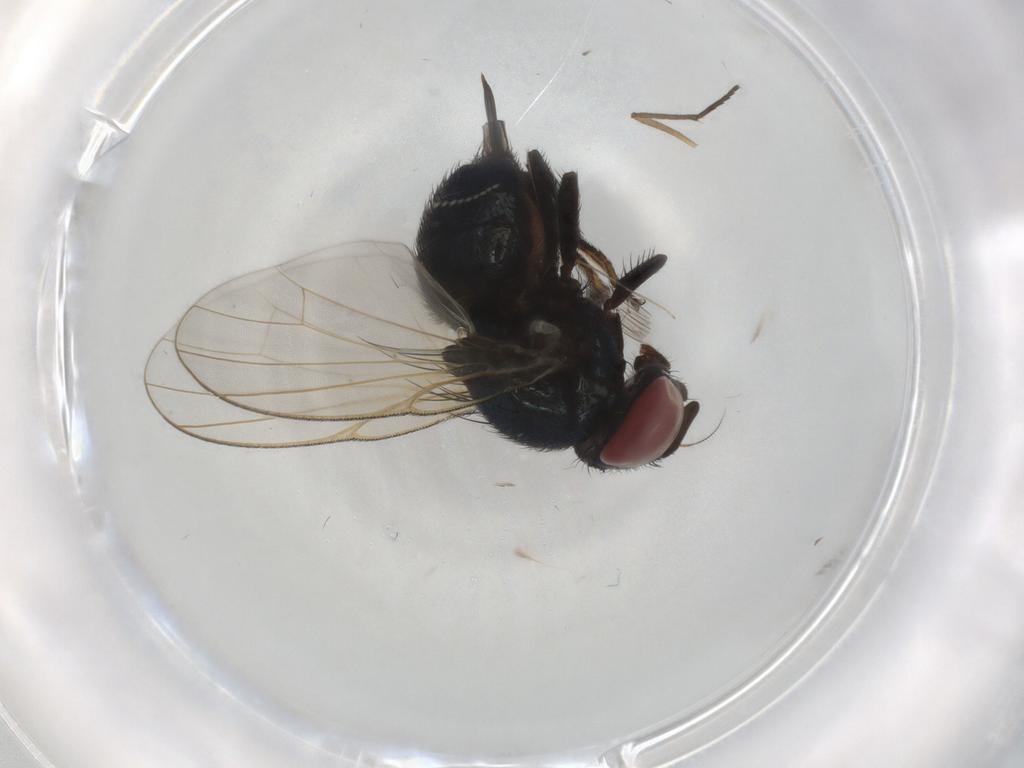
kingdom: Animalia
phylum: Arthropoda
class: Insecta
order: Diptera
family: Lonchaeidae
